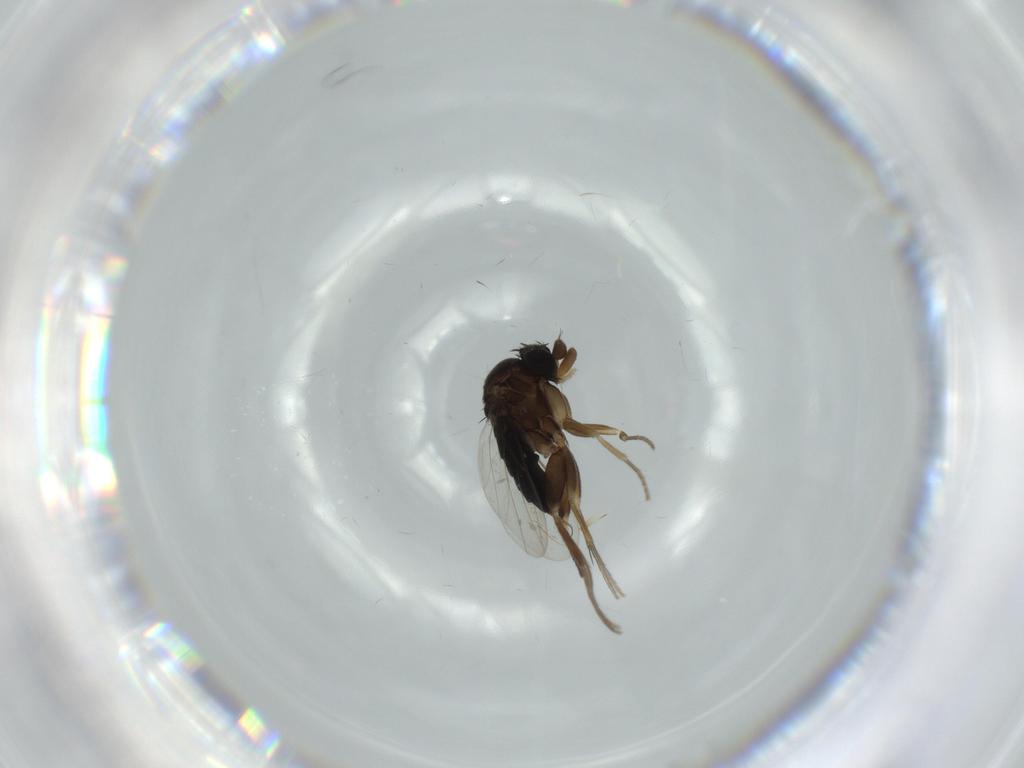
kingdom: Animalia
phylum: Arthropoda
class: Insecta
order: Diptera
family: Phoridae
